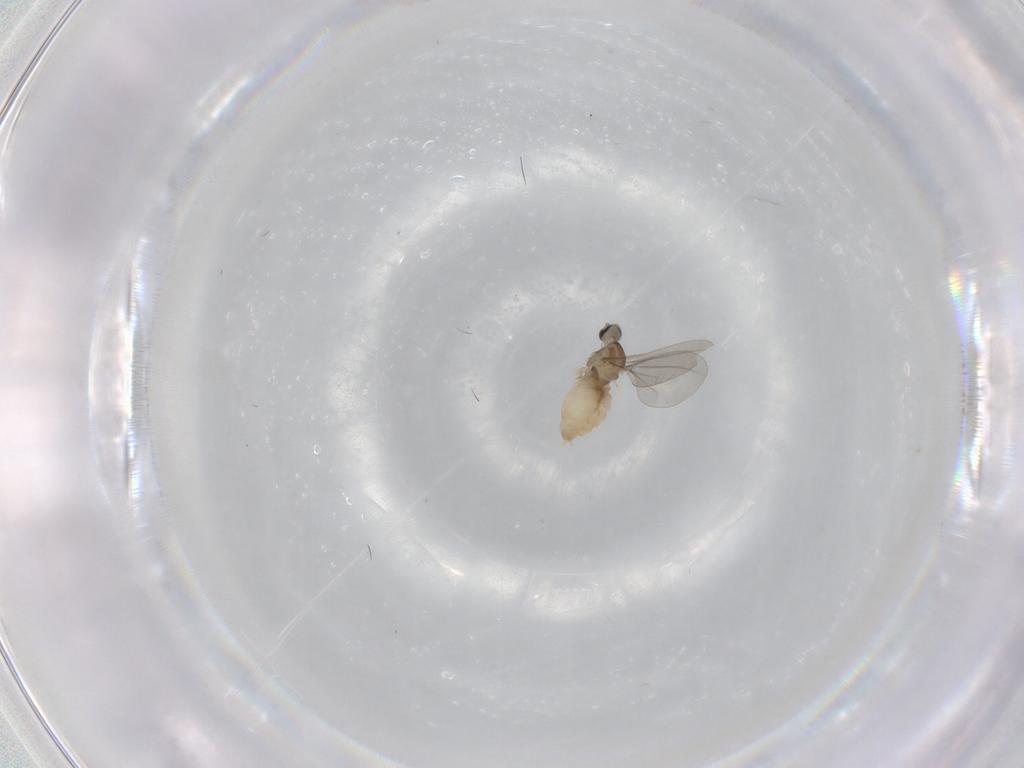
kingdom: Animalia
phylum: Arthropoda
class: Insecta
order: Diptera
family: Cecidomyiidae
